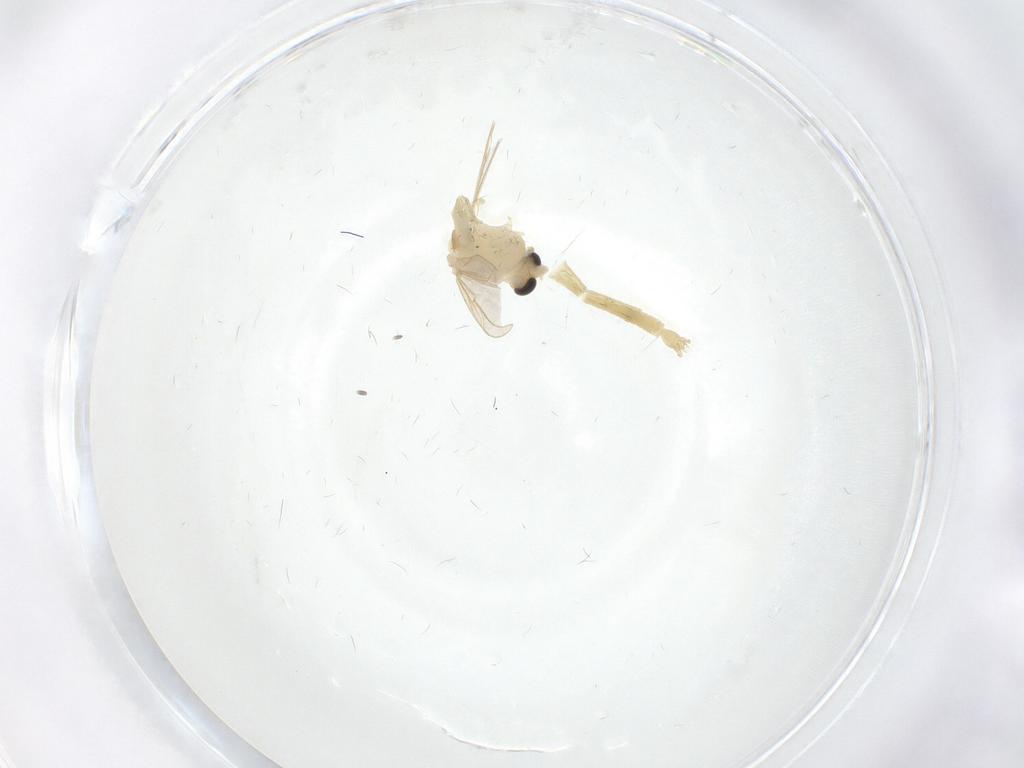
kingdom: Animalia
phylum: Arthropoda
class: Insecta
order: Diptera
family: Chironomidae
